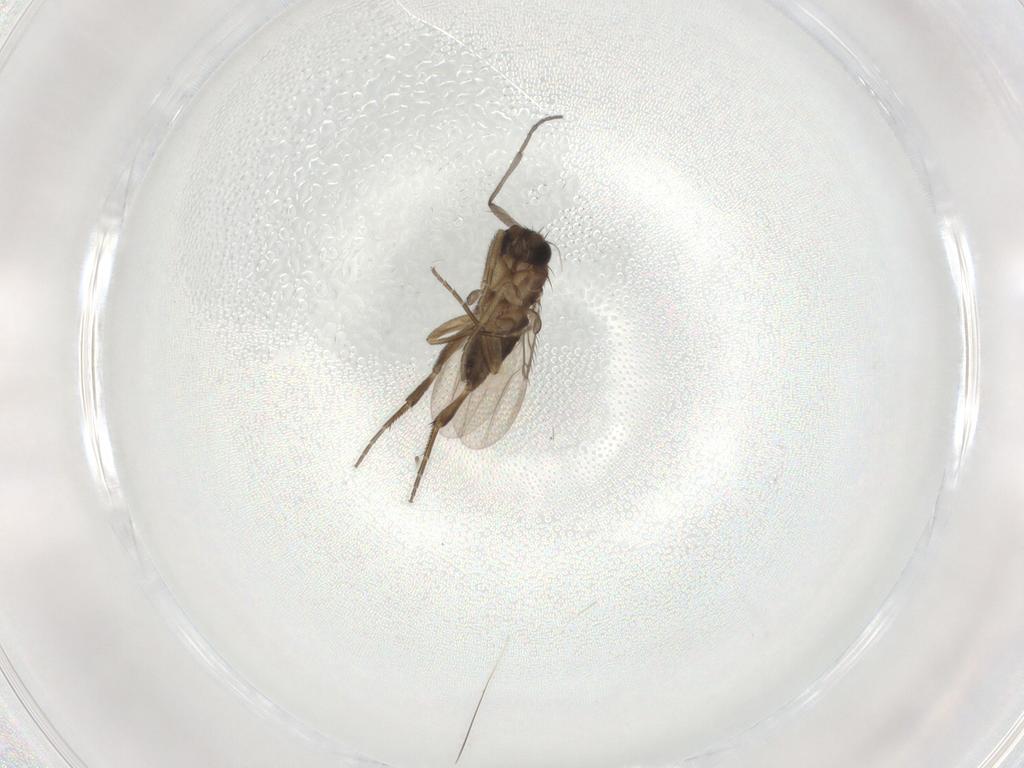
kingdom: Animalia
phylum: Arthropoda
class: Insecta
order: Diptera
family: Phoridae
